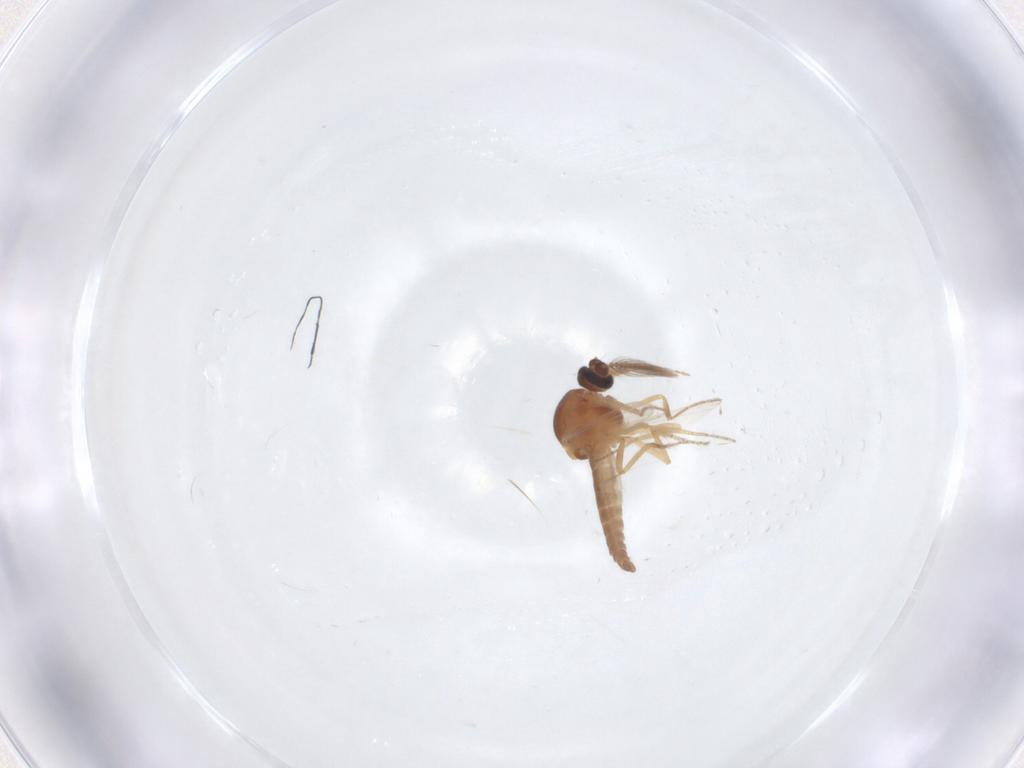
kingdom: Animalia
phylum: Arthropoda
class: Insecta
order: Diptera
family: Ceratopogonidae
